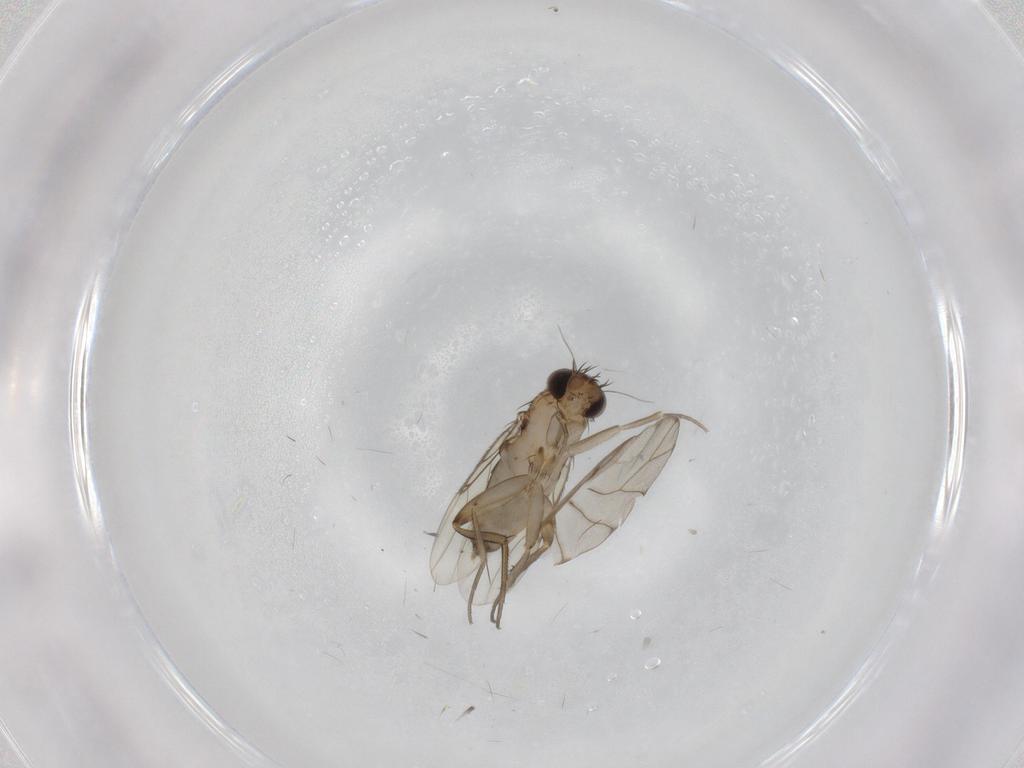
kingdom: Animalia
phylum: Arthropoda
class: Insecta
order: Diptera
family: Phoridae
